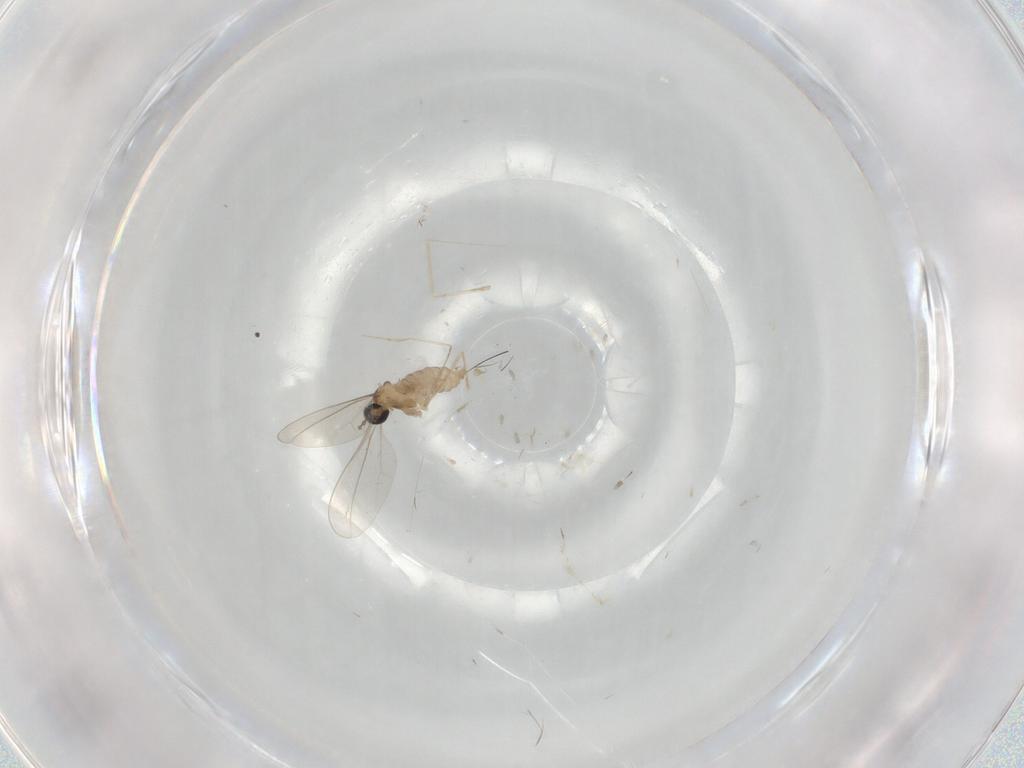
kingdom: Animalia
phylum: Arthropoda
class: Insecta
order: Diptera
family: Cecidomyiidae
